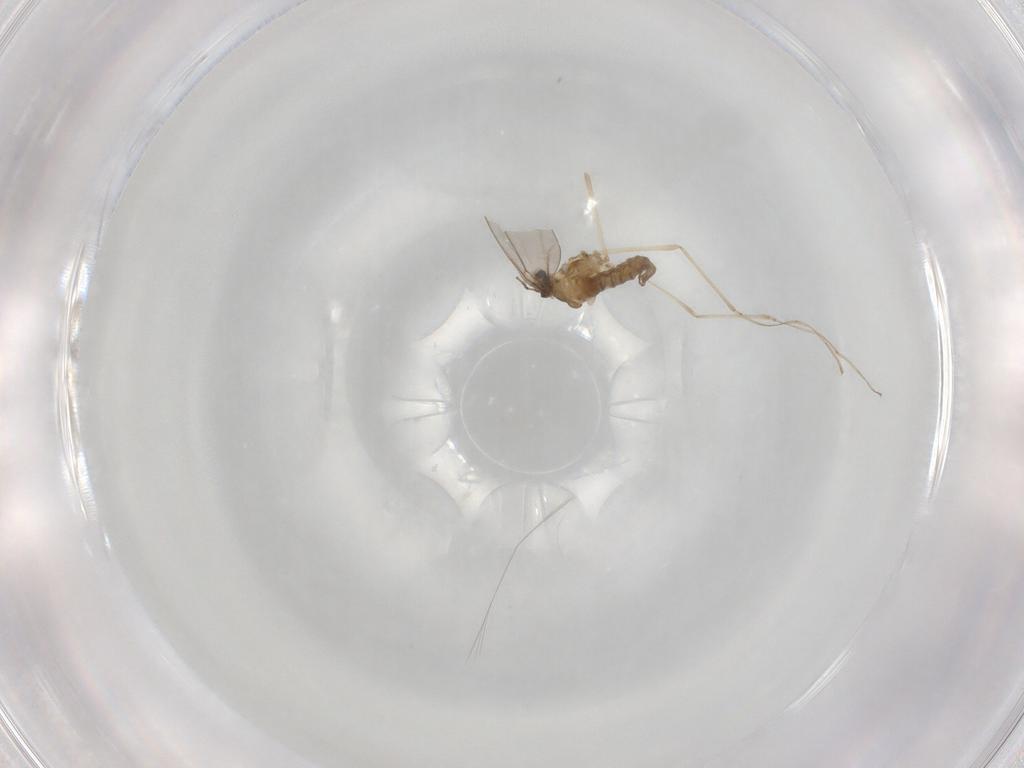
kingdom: Animalia
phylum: Arthropoda
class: Insecta
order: Diptera
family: Cecidomyiidae
